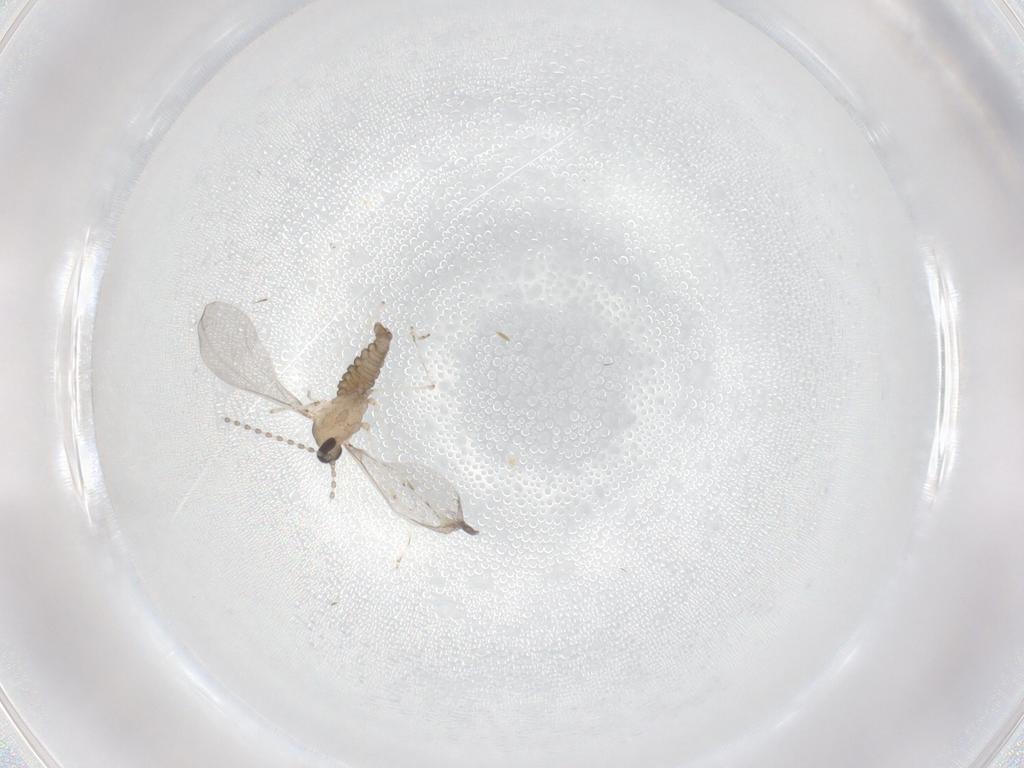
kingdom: Animalia
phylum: Arthropoda
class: Insecta
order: Diptera
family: Cecidomyiidae
